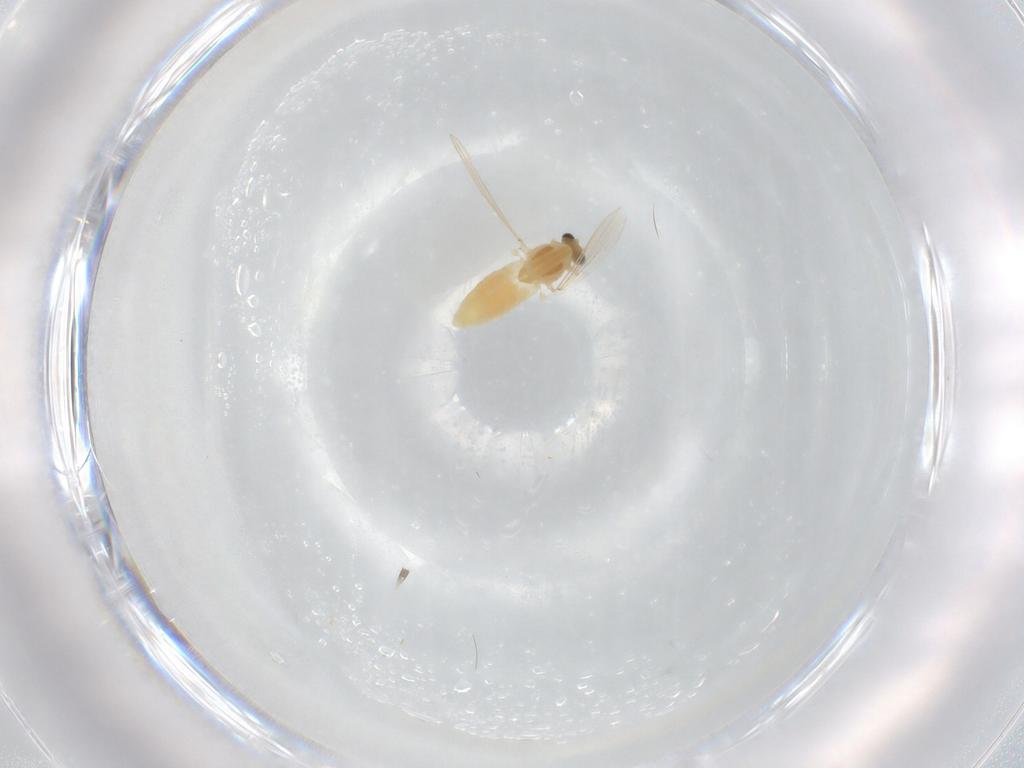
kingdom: Animalia
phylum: Arthropoda
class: Insecta
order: Diptera
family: Chironomidae
